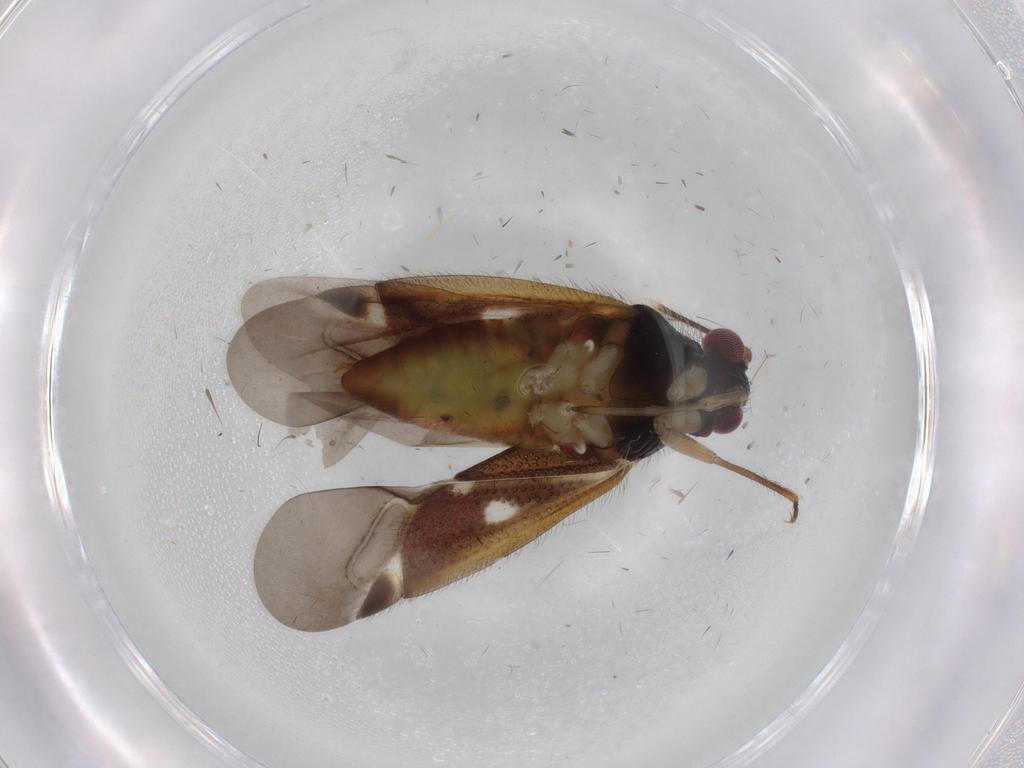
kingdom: Animalia
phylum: Arthropoda
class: Insecta
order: Hemiptera
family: Miridae
